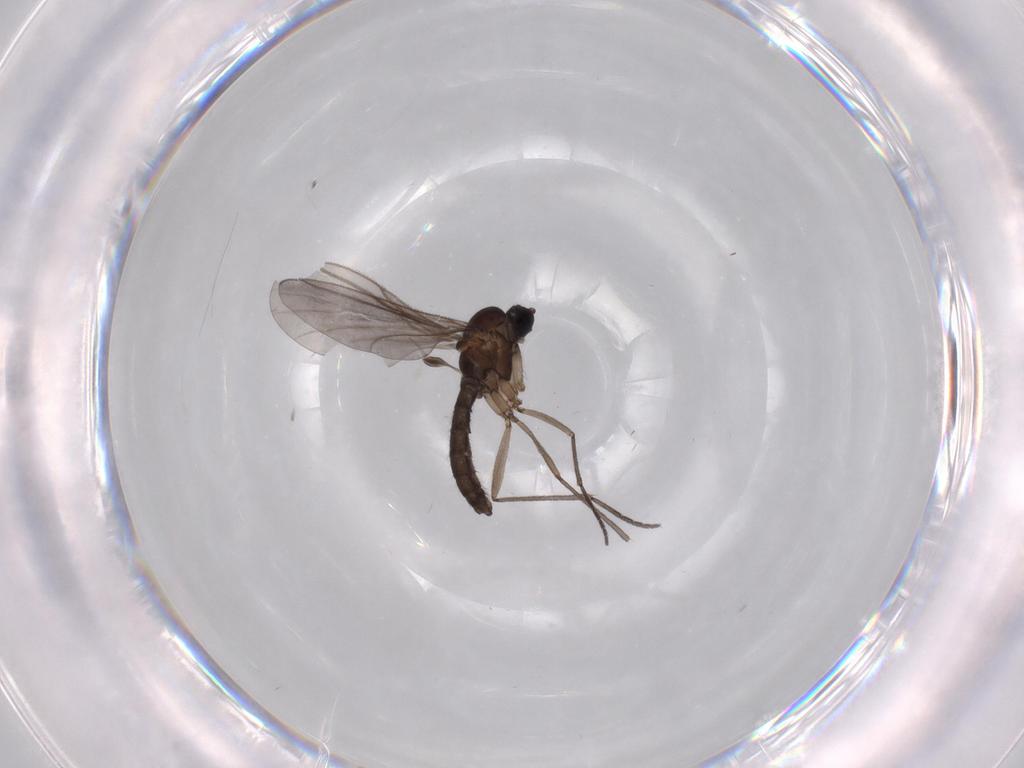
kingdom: Animalia
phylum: Arthropoda
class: Insecta
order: Diptera
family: Sciaridae
